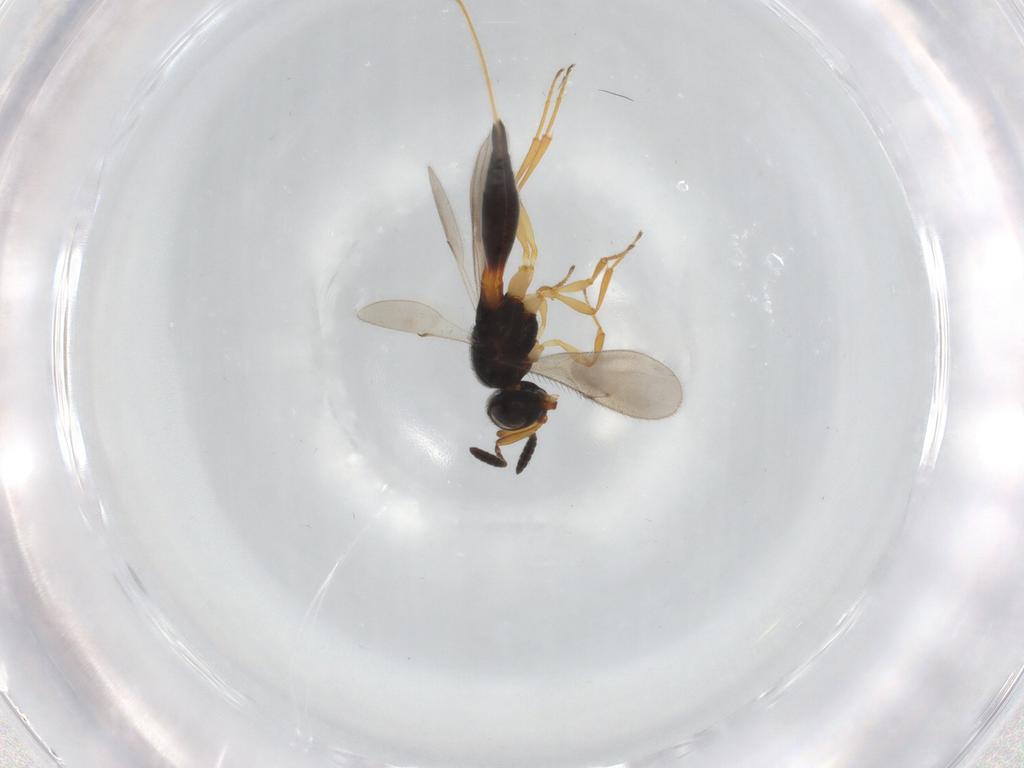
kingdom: Animalia
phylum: Arthropoda
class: Insecta
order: Hymenoptera
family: Scelionidae
